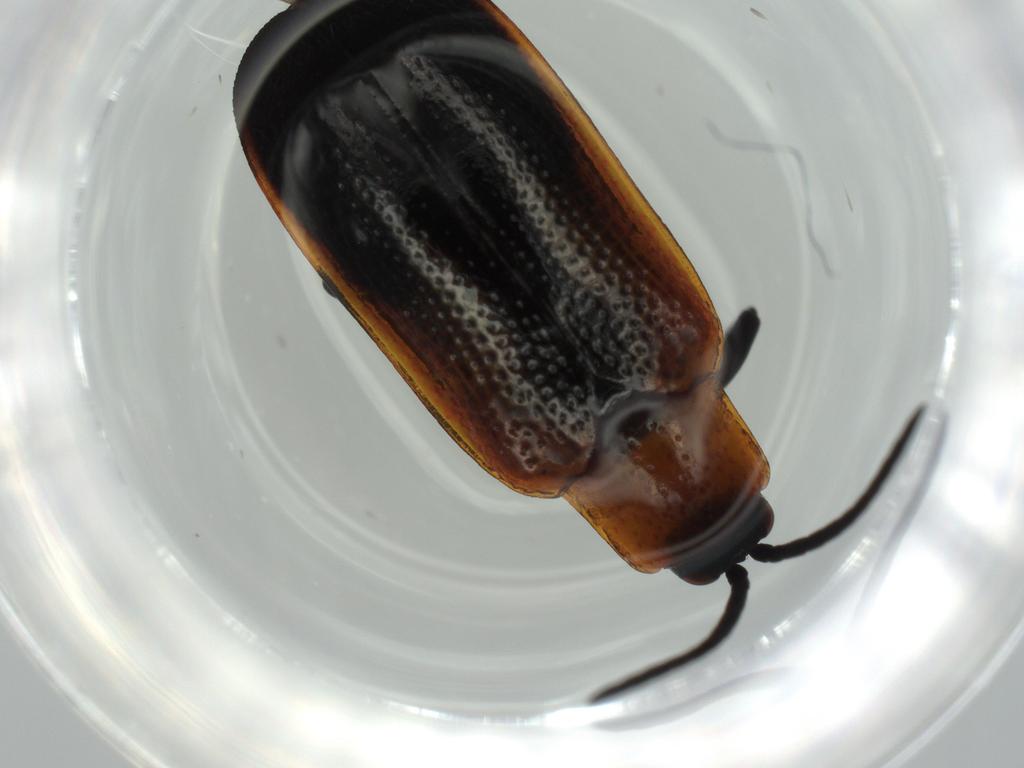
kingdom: Animalia
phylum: Arthropoda
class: Insecta
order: Coleoptera
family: Chrysomelidae
